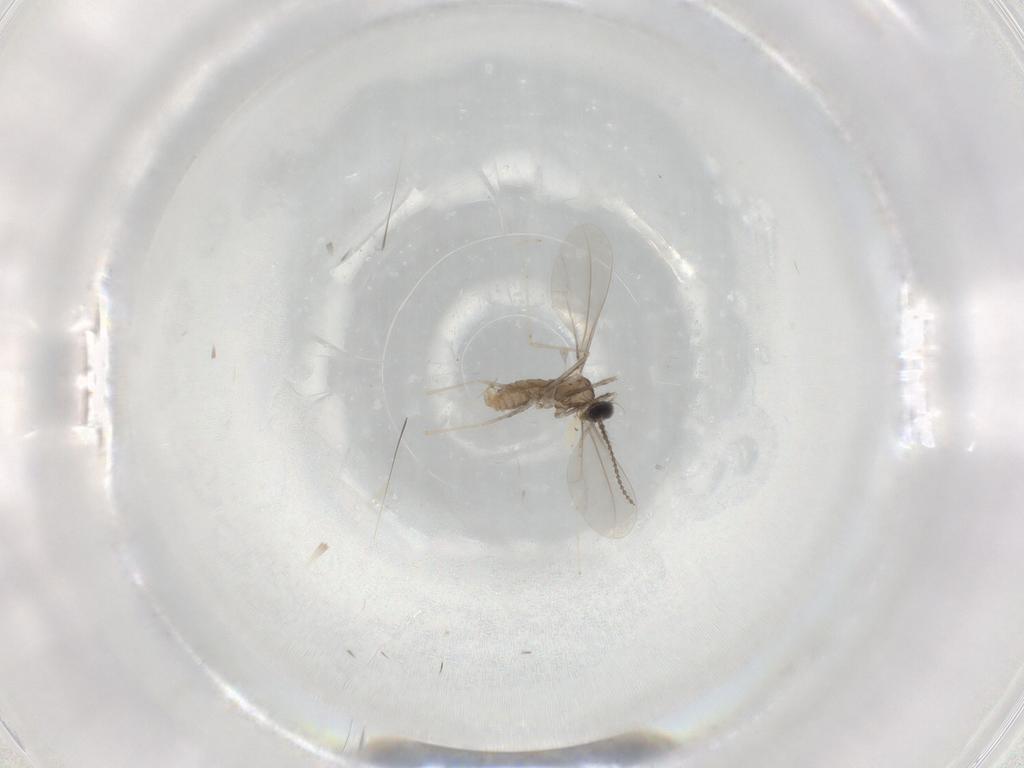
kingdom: Animalia
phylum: Arthropoda
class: Insecta
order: Diptera
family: Cecidomyiidae
